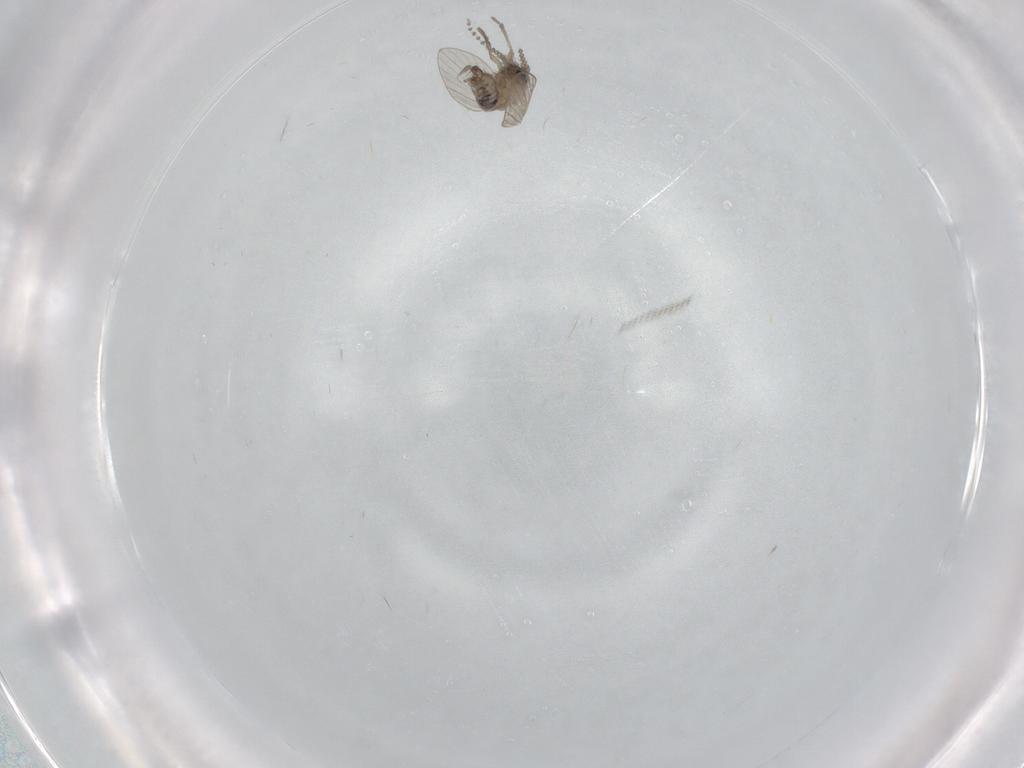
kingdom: Animalia
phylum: Arthropoda
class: Insecta
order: Diptera
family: Psychodidae
